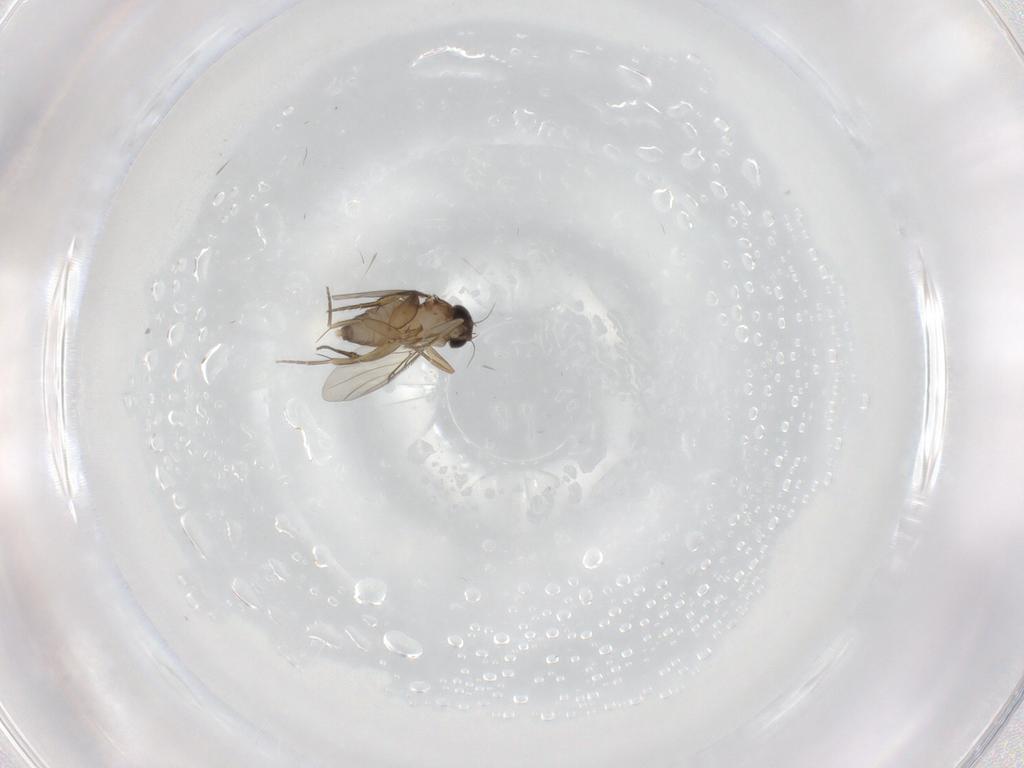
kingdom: Animalia
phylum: Arthropoda
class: Insecta
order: Diptera
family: Phoridae
